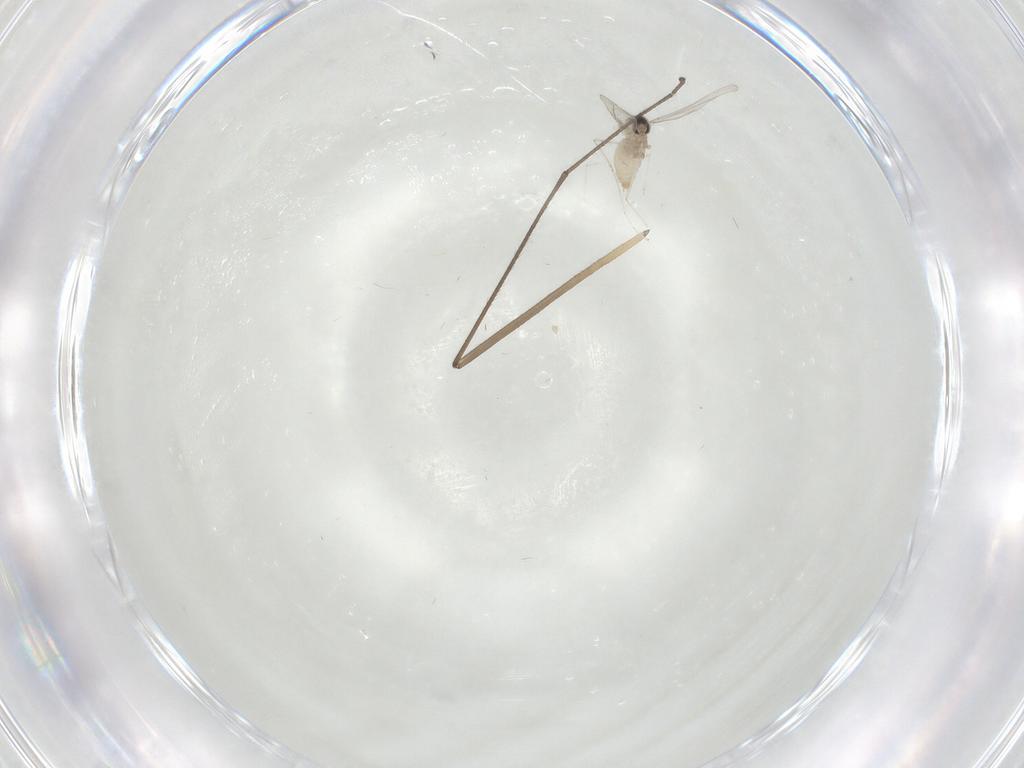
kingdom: Animalia
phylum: Arthropoda
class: Insecta
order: Diptera
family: Cecidomyiidae
